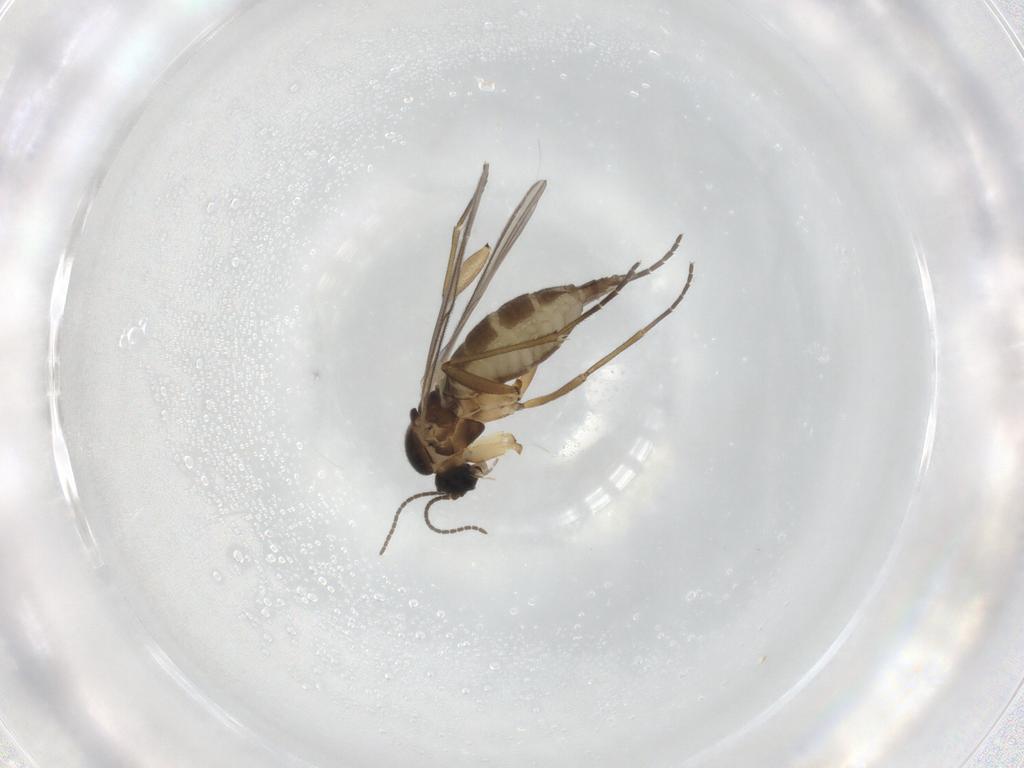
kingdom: Animalia
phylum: Arthropoda
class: Insecta
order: Diptera
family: Ceratopogonidae
